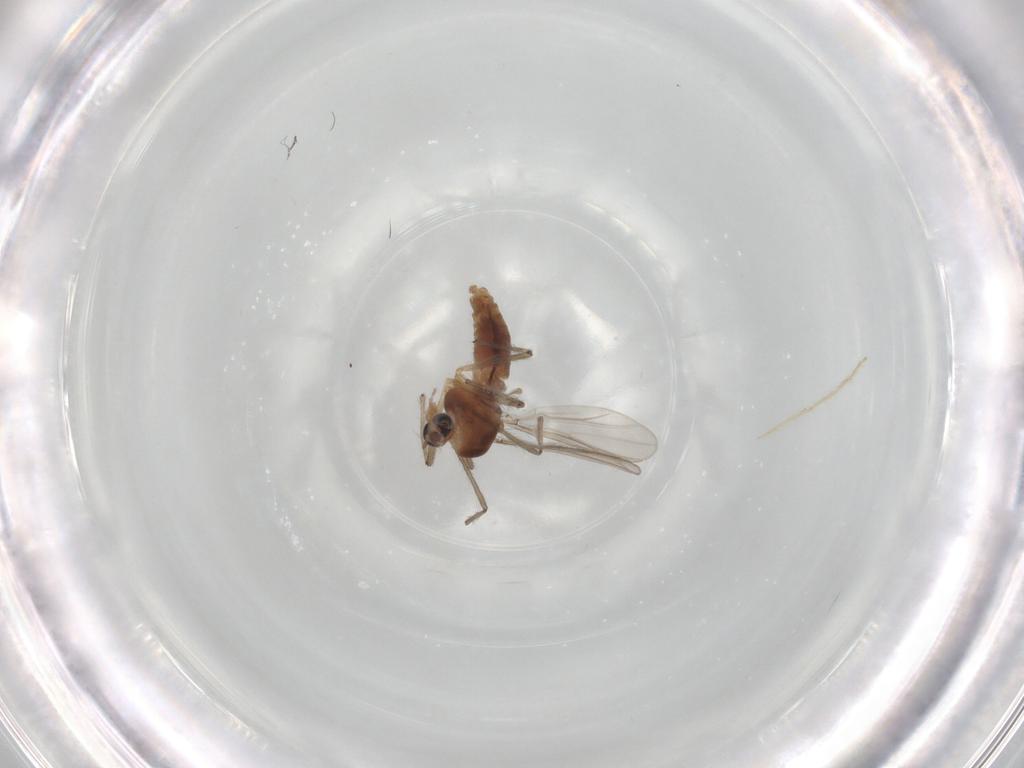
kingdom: Animalia
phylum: Arthropoda
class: Insecta
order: Diptera
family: Chironomidae
